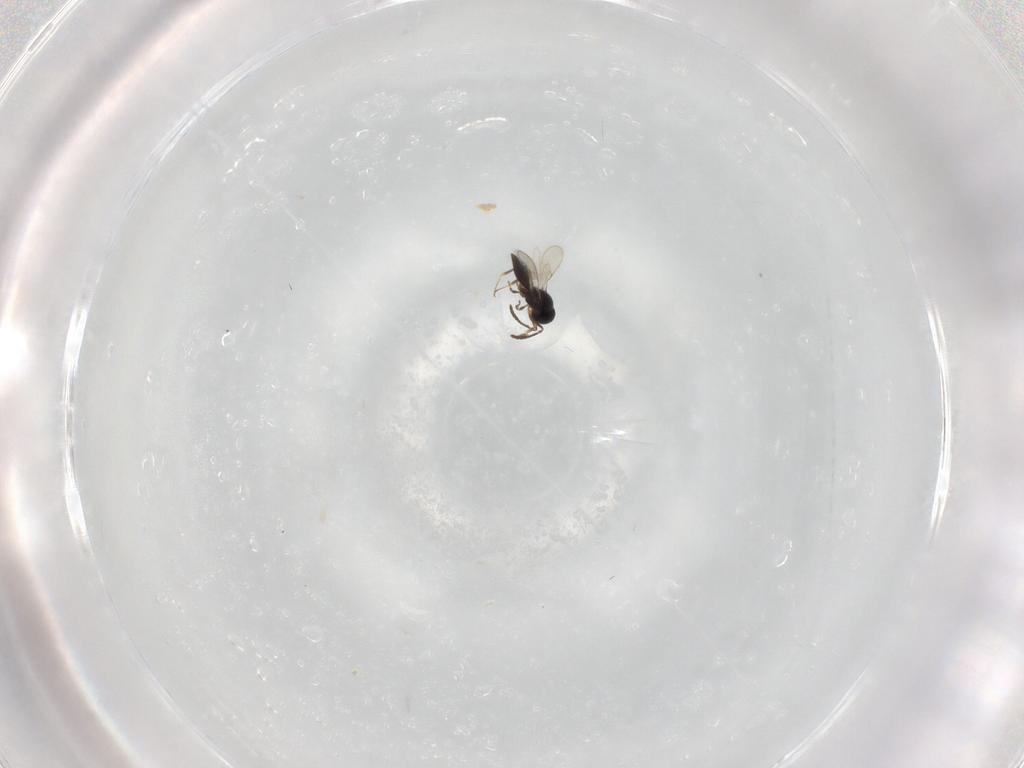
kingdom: Animalia
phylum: Arthropoda
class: Insecta
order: Hymenoptera
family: Scelionidae
